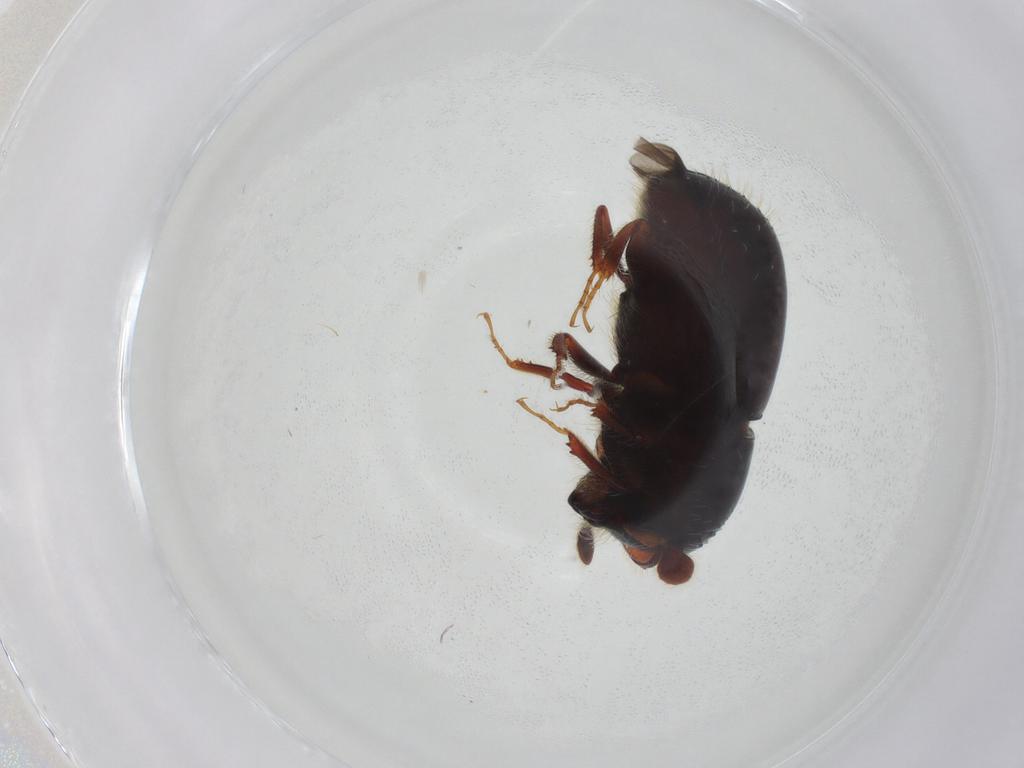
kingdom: Animalia
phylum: Arthropoda
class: Insecta
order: Coleoptera
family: Curculionidae
